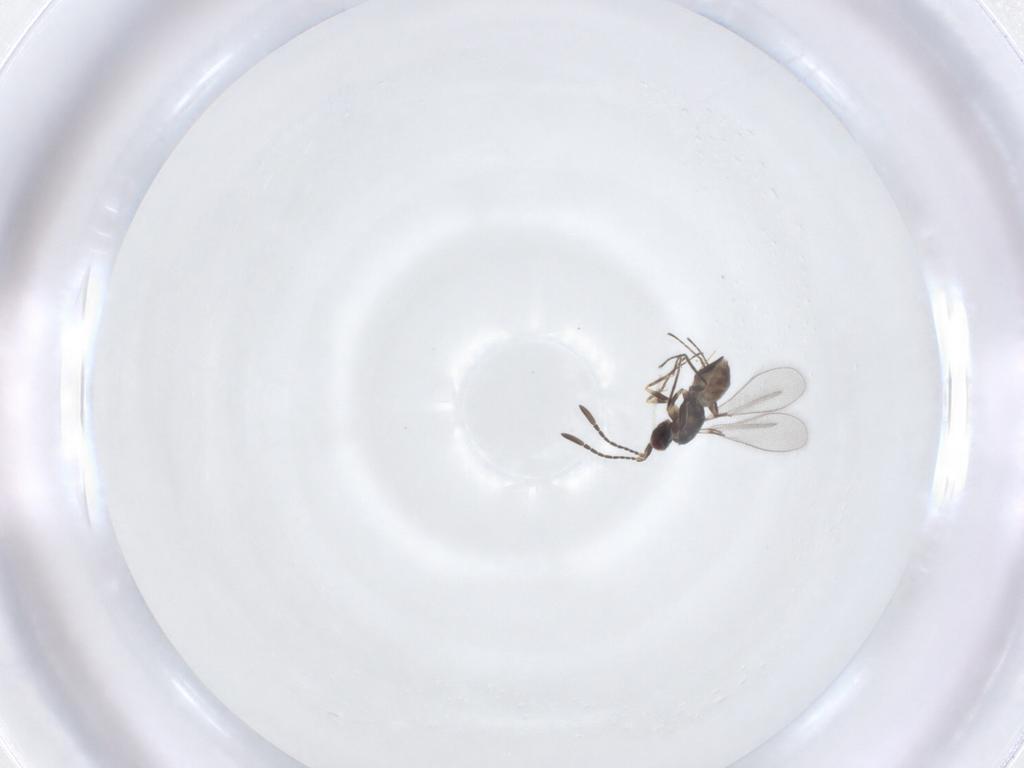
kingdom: Animalia
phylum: Arthropoda
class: Insecta
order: Hymenoptera
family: Mymaridae
